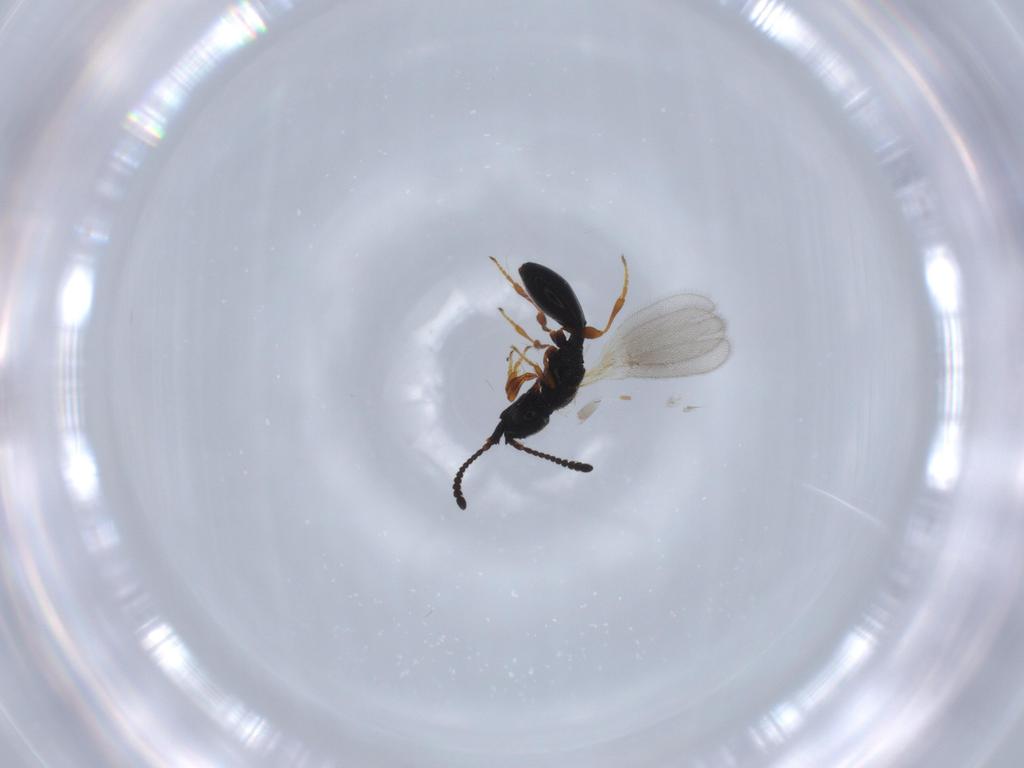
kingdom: Animalia
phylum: Arthropoda
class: Insecta
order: Hymenoptera
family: Diapriidae
